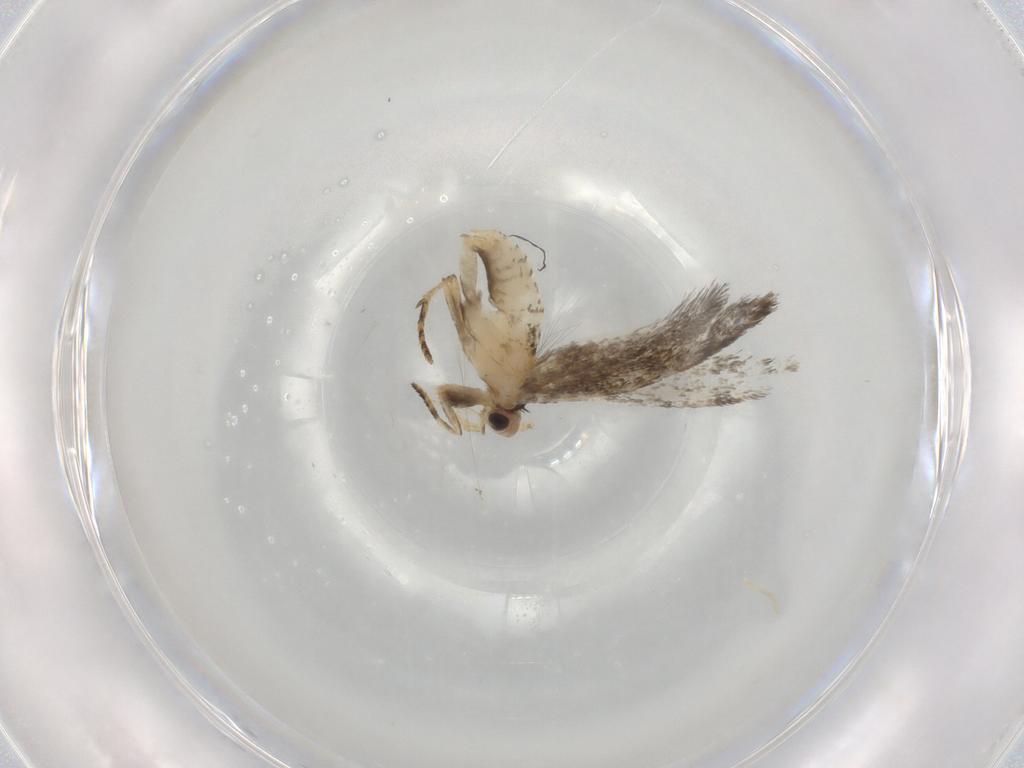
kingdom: Animalia
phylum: Arthropoda
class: Insecta
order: Lepidoptera
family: Tineidae
